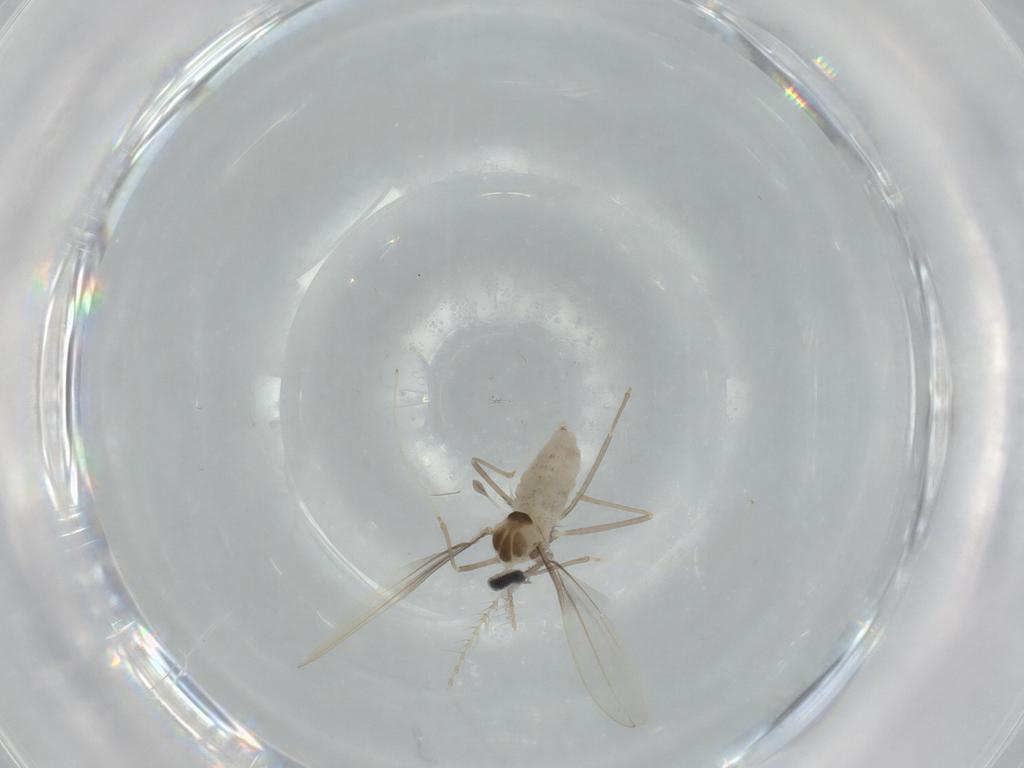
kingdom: Animalia
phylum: Arthropoda
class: Insecta
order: Diptera
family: Cecidomyiidae
